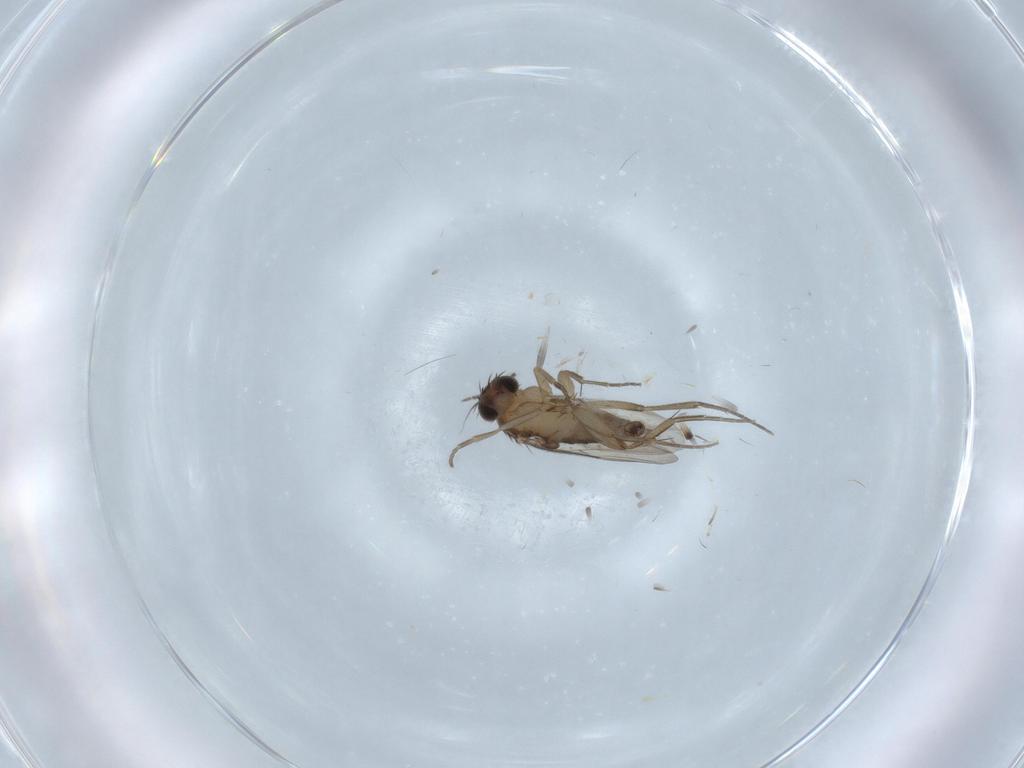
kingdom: Animalia
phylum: Arthropoda
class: Insecta
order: Diptera
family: Phoridae
